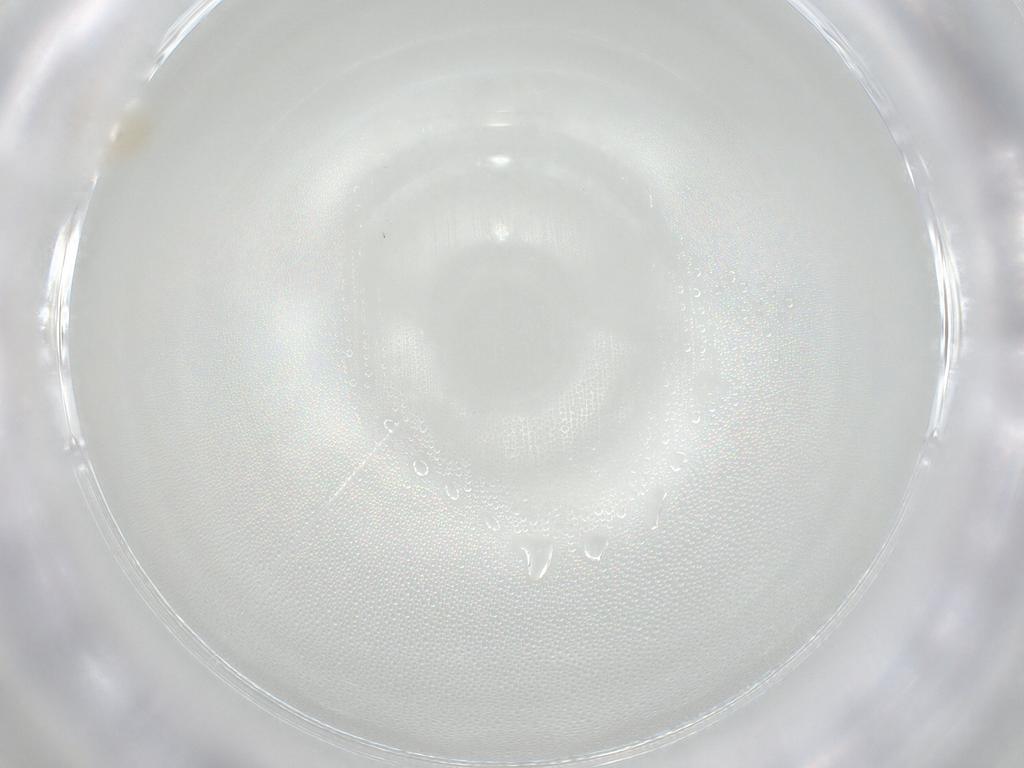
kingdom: Animalia
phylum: Arthropoda
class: Arachnida
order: Trombidiformes
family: Anystidae
